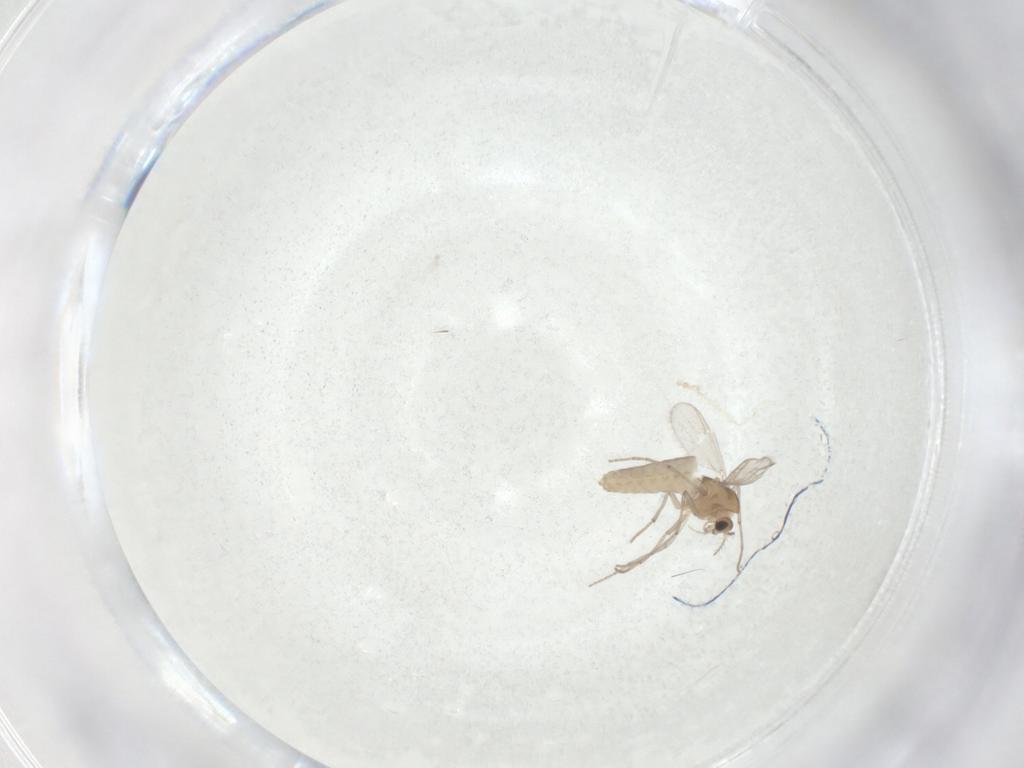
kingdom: Animalia
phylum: Arthropoda
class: Insecta
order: Diptera
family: Chironomidae
